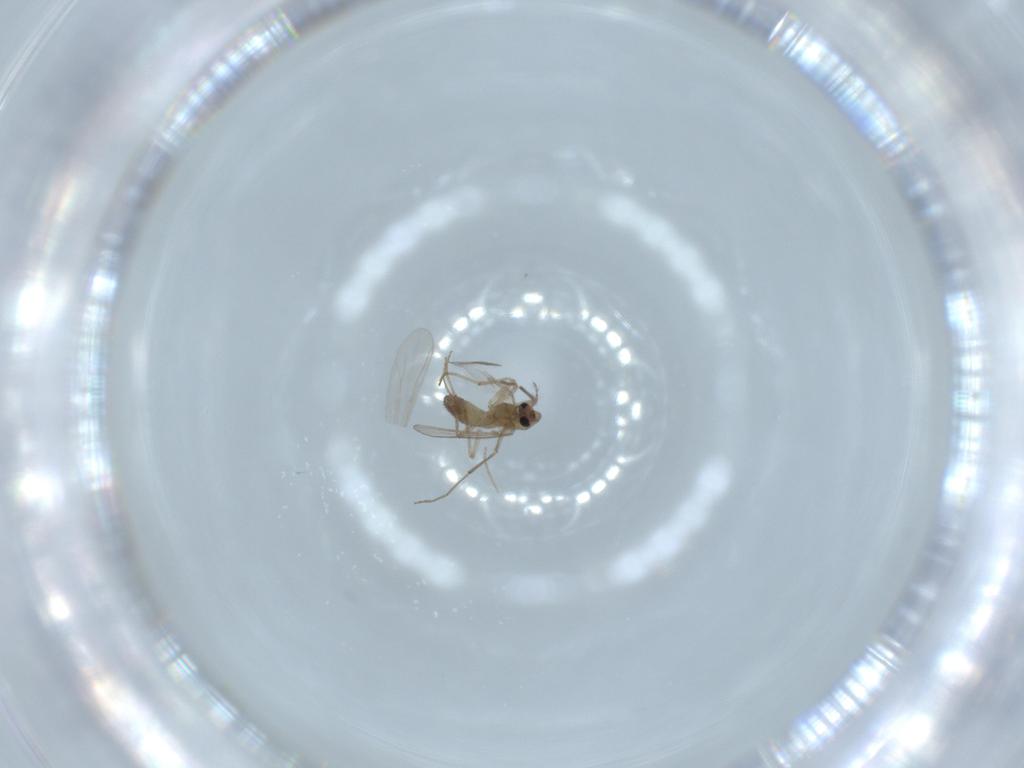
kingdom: Animalia
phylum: Arthropoda
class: Insecta
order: Diptera
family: Chironomidae
